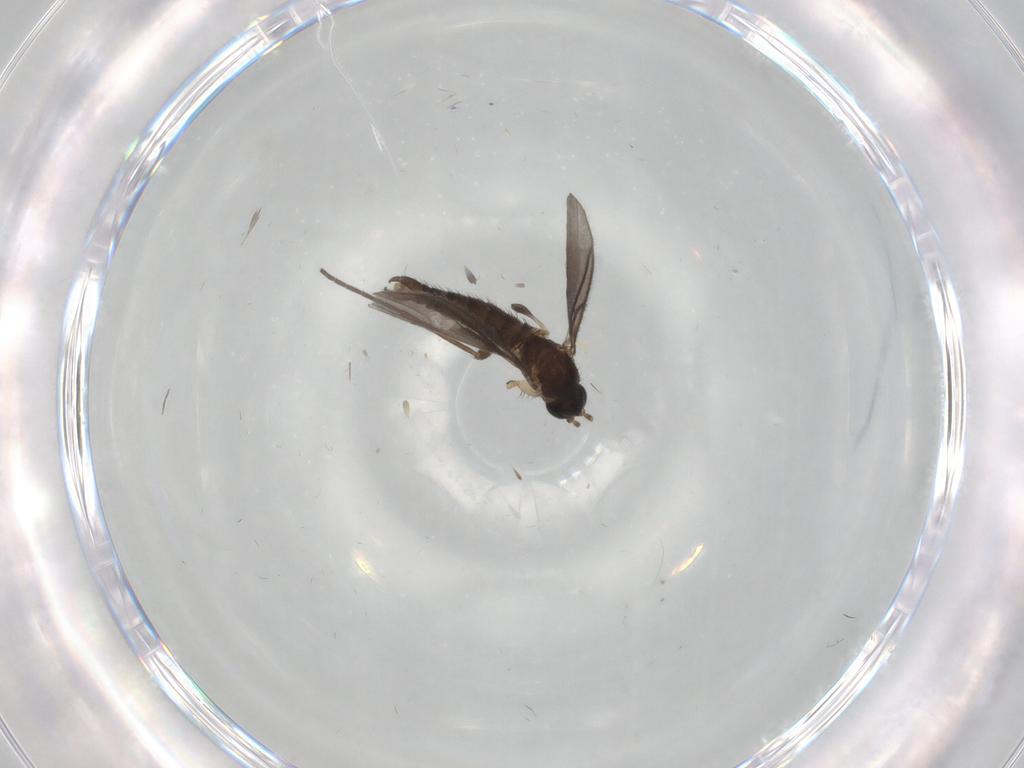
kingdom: Animalia
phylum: Arthropoda
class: Insecta
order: Diptera
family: Sciaridae
